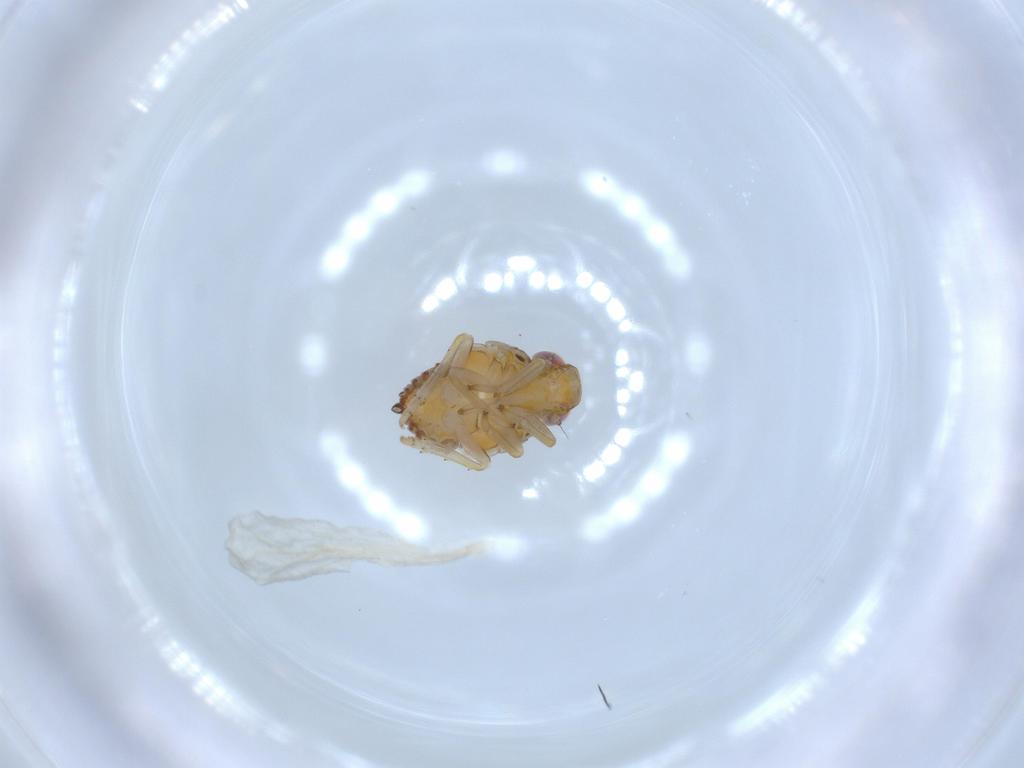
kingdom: Animalia
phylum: Arthropoda
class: Insecta
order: Hemiptera
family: Issidae
